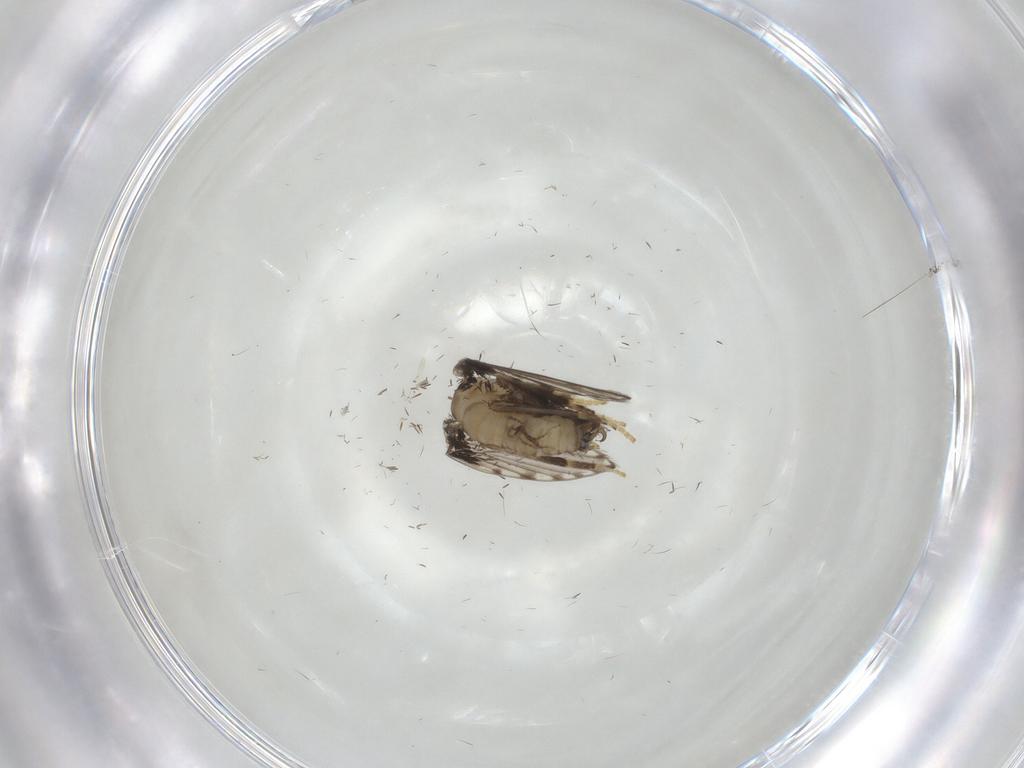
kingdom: Animalia
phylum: Arthropoda
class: Insecta
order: Diptera
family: Psychodidae
